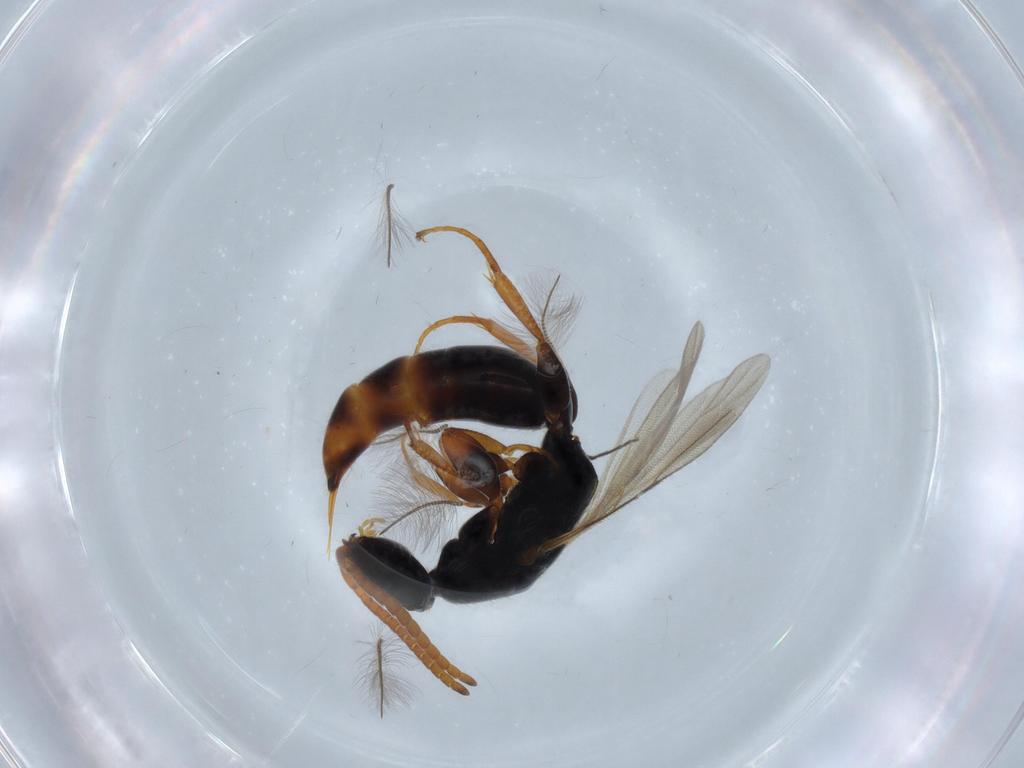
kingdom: Animalia
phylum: Arthropoda
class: Insecta
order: Hymenoptera
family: Bethylidae
